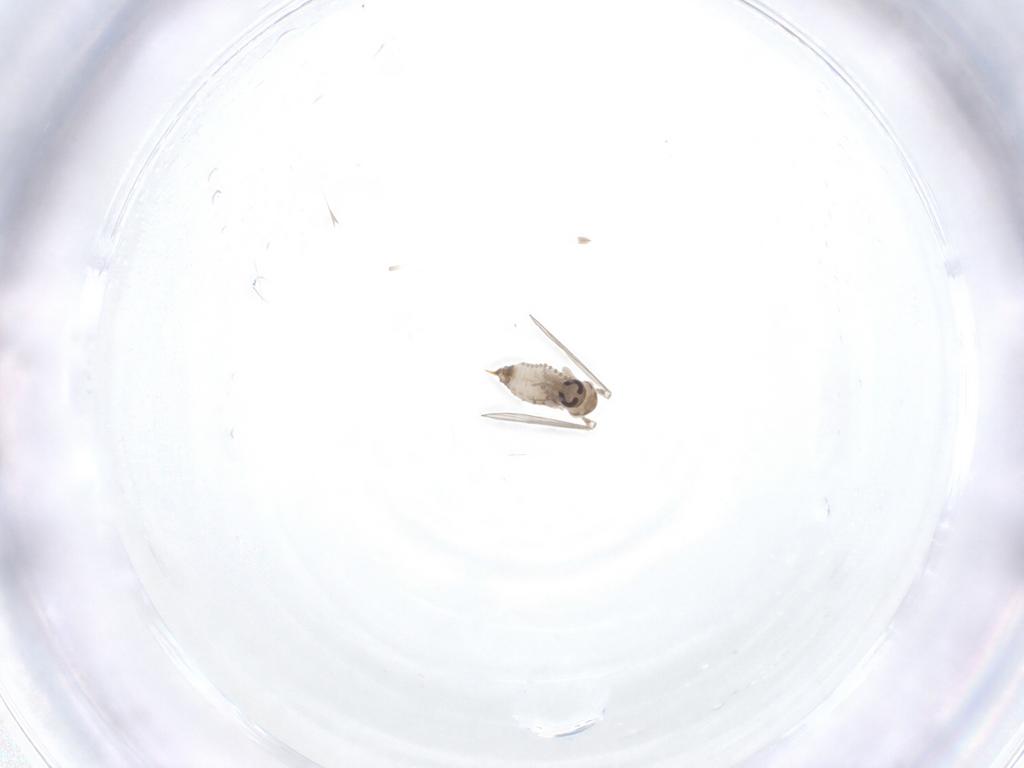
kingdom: Animalia
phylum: Arthropoda
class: Insecta
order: Diptera
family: Psychodidae
